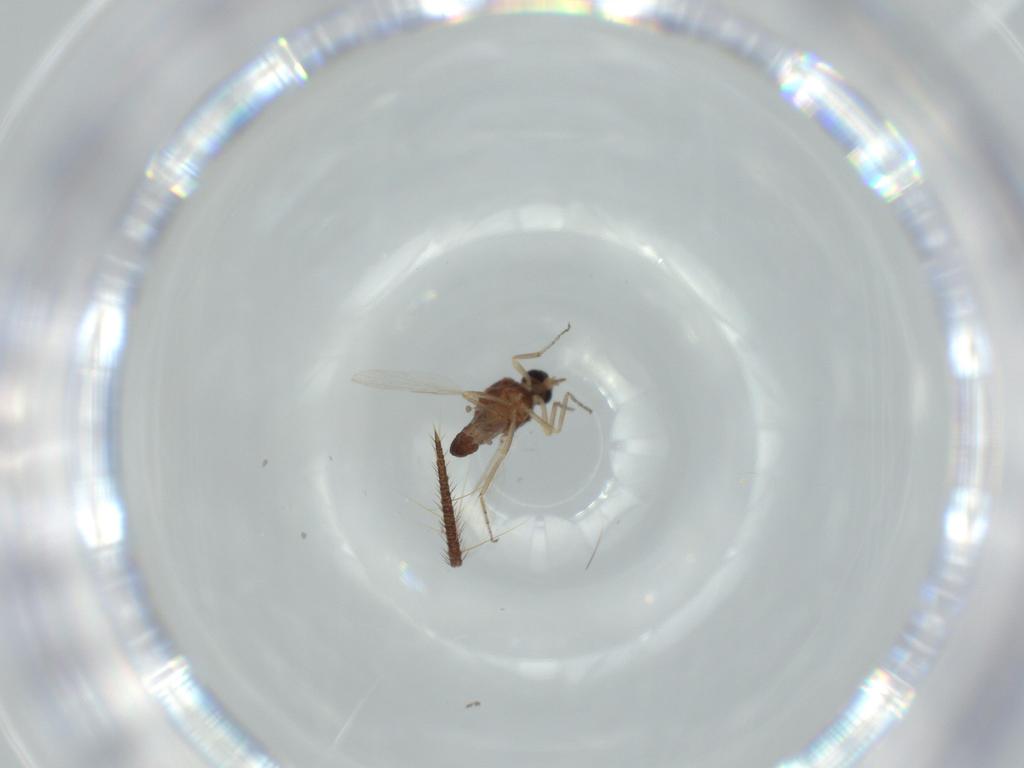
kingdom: Animalia
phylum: Arthropoda
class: Insecta
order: Diptera
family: Ceratopogonidae
